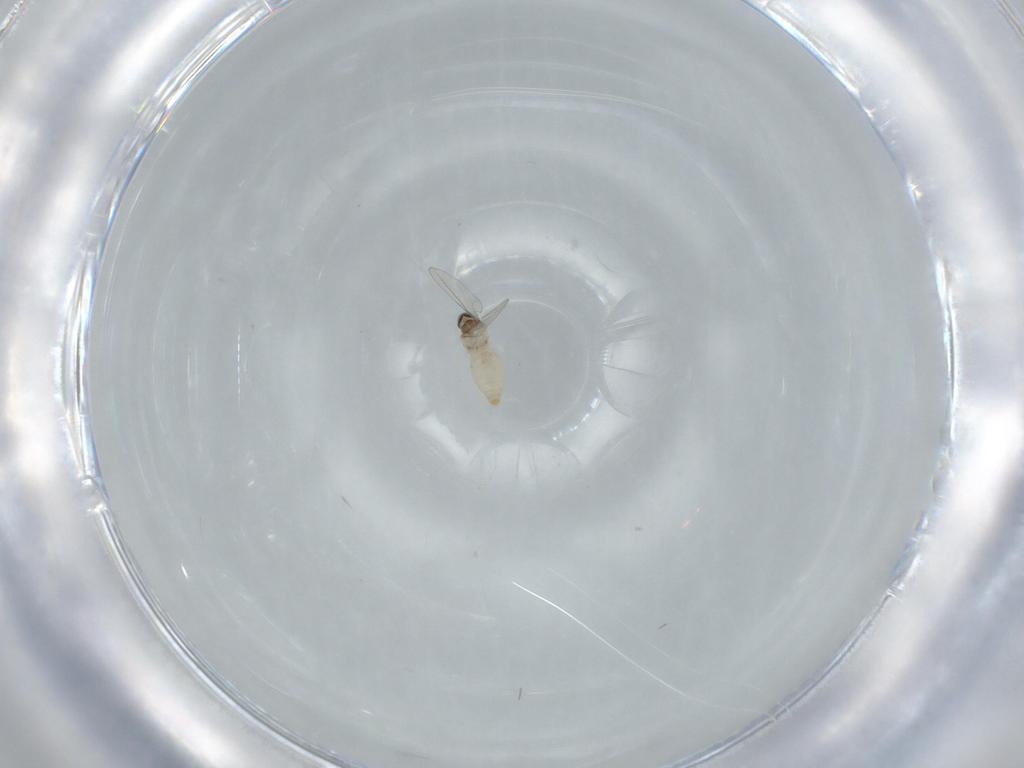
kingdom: Animalia
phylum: Arthropoda
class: Insecta
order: Diptera
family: Cecidomyiidae
